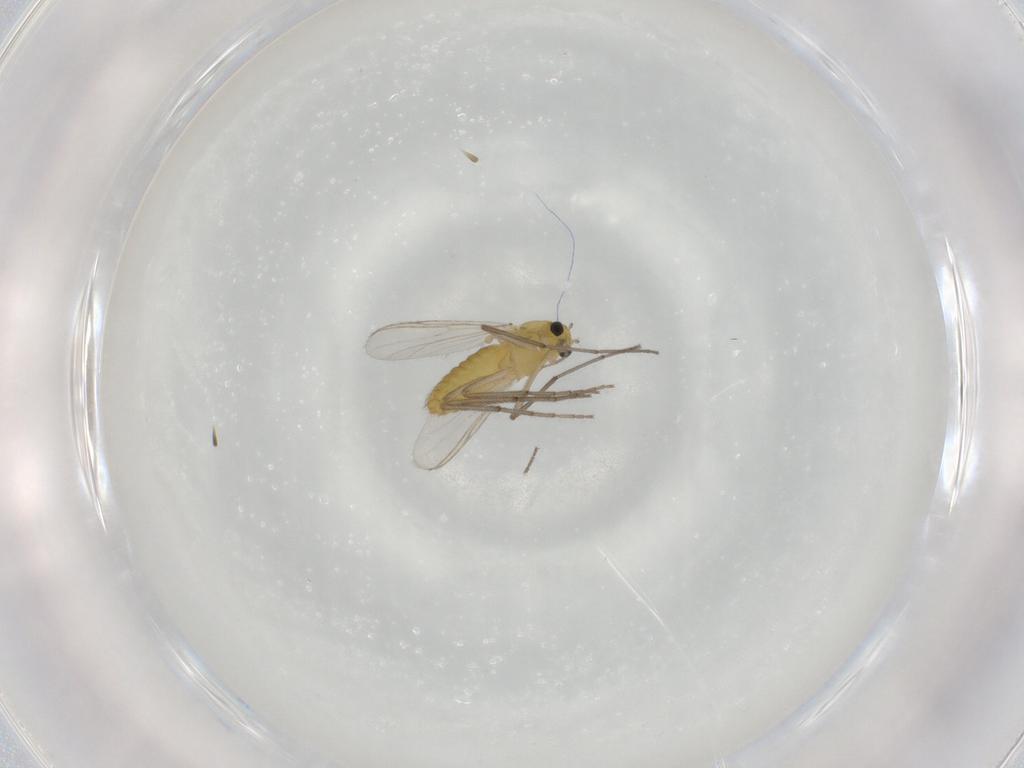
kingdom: Animalia
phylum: Arthropoda
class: Insecta
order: Diptera
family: Chironomidae
